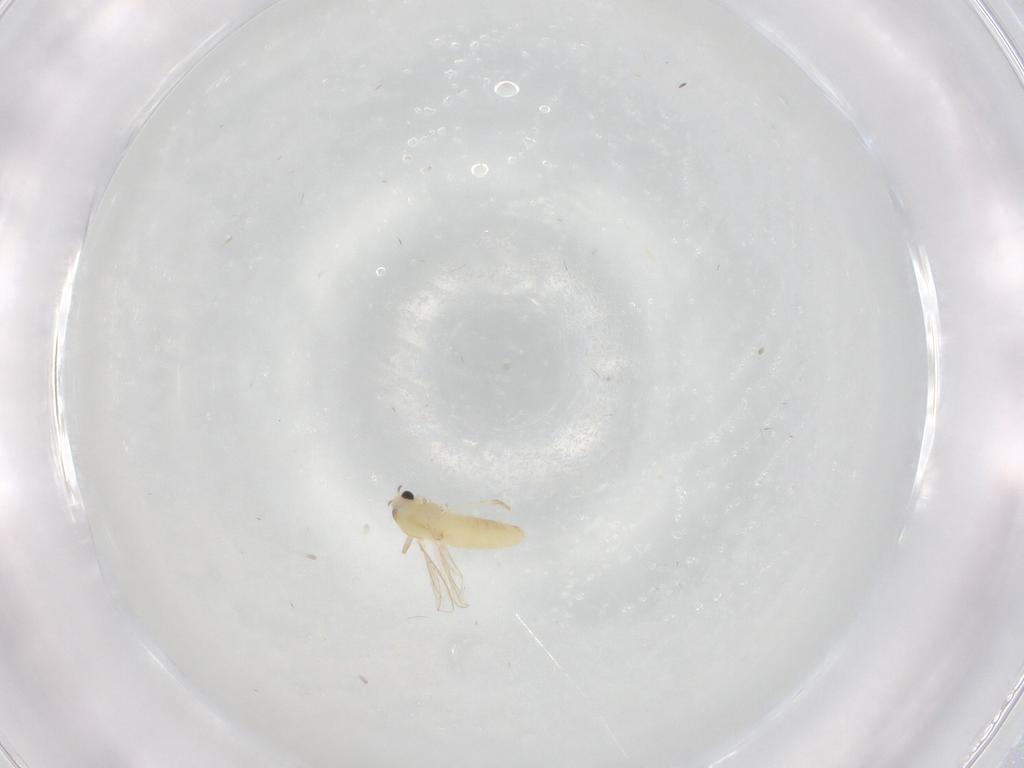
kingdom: Animalia
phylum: Arthropoda
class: Insecta
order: Diptera
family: Chironomidae
